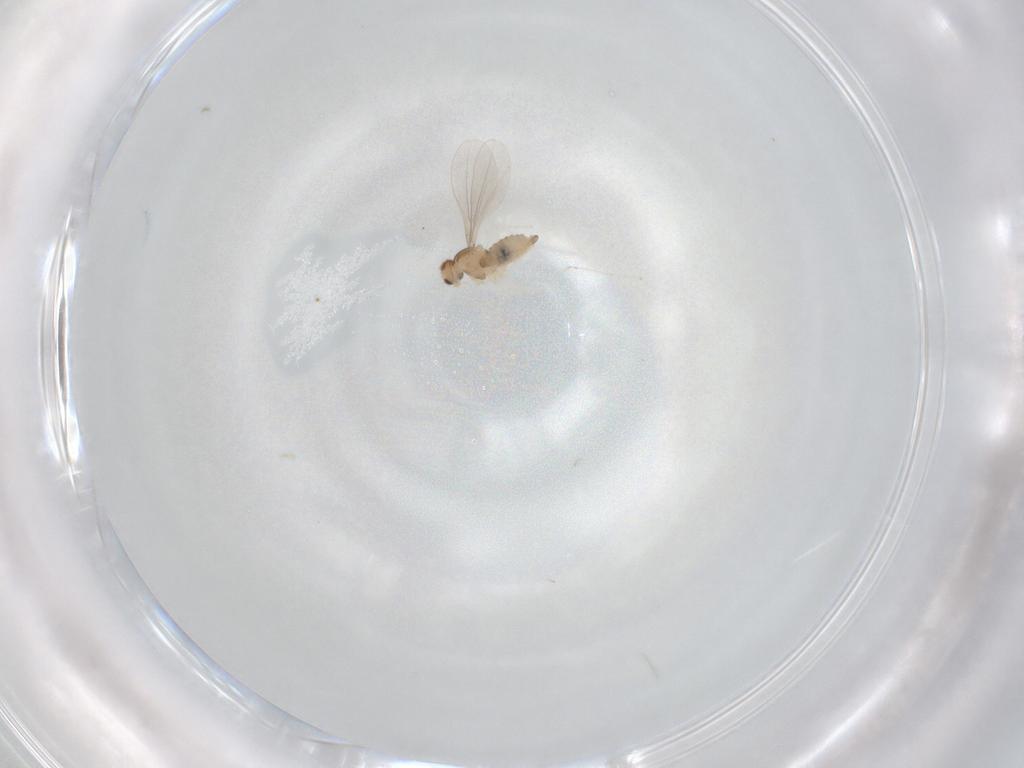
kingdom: Animalia
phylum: Arthropoda
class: Insecta
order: Diptera
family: Cecidomyiidae
